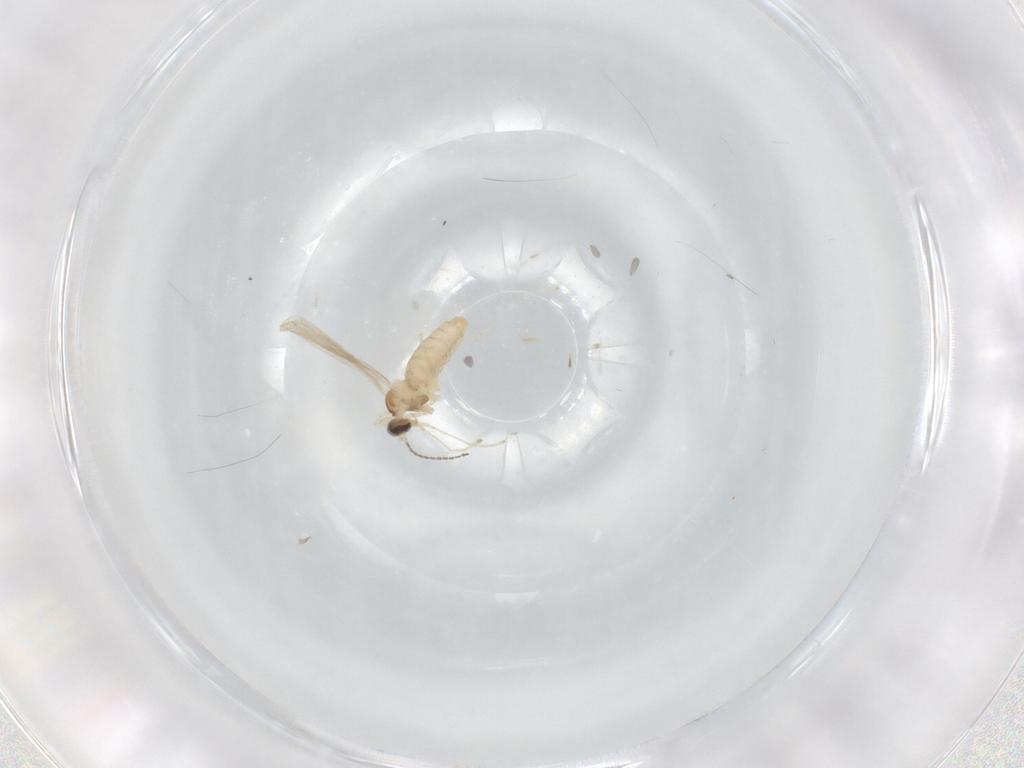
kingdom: Animalia
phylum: Arthropoda
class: Insecta
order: Diptera
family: Cecidomyiidae
